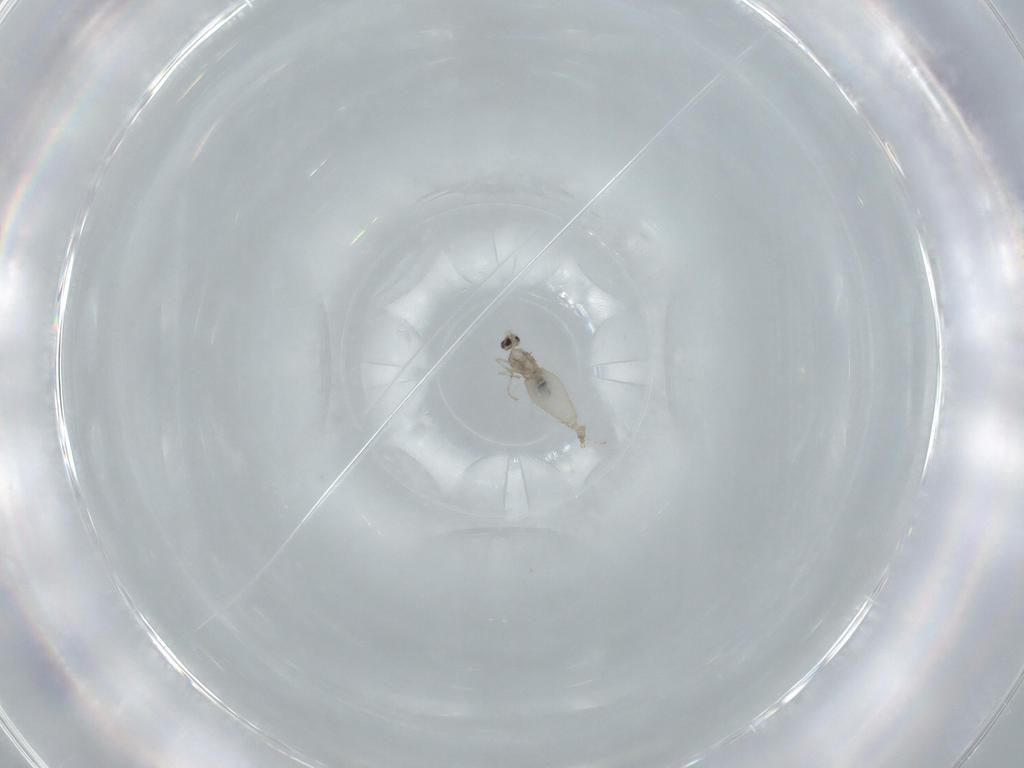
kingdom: Animalia
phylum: Arthropoda
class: Insecta
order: Diptera
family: Cecidomyiidae
